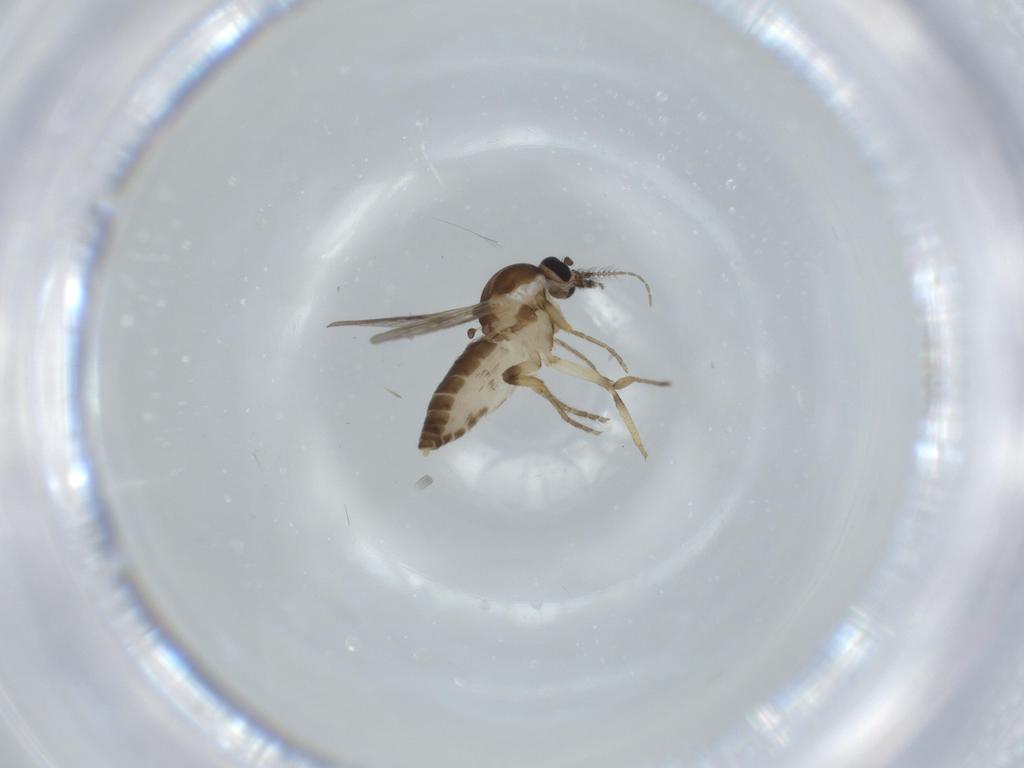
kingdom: Animalia
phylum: Arthropoda
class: Insecta
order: Diptera
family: Ceratopogonidae
